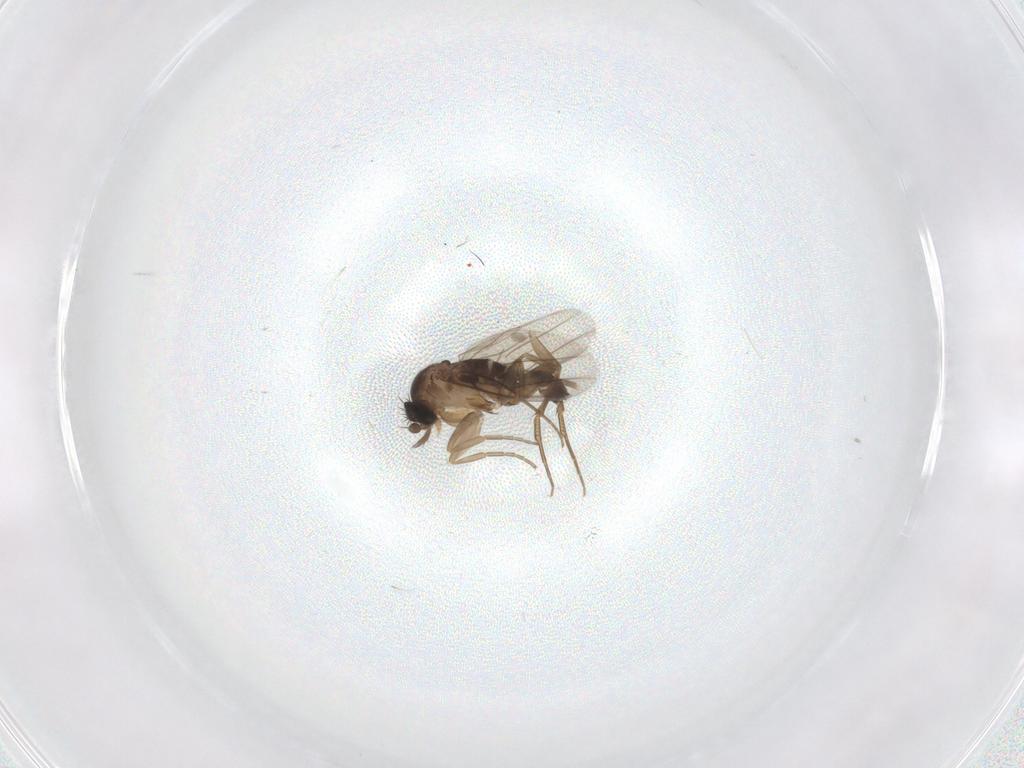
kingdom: Animalia
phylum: Arthropoda
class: Insecta
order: Diptera
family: Phoridae
